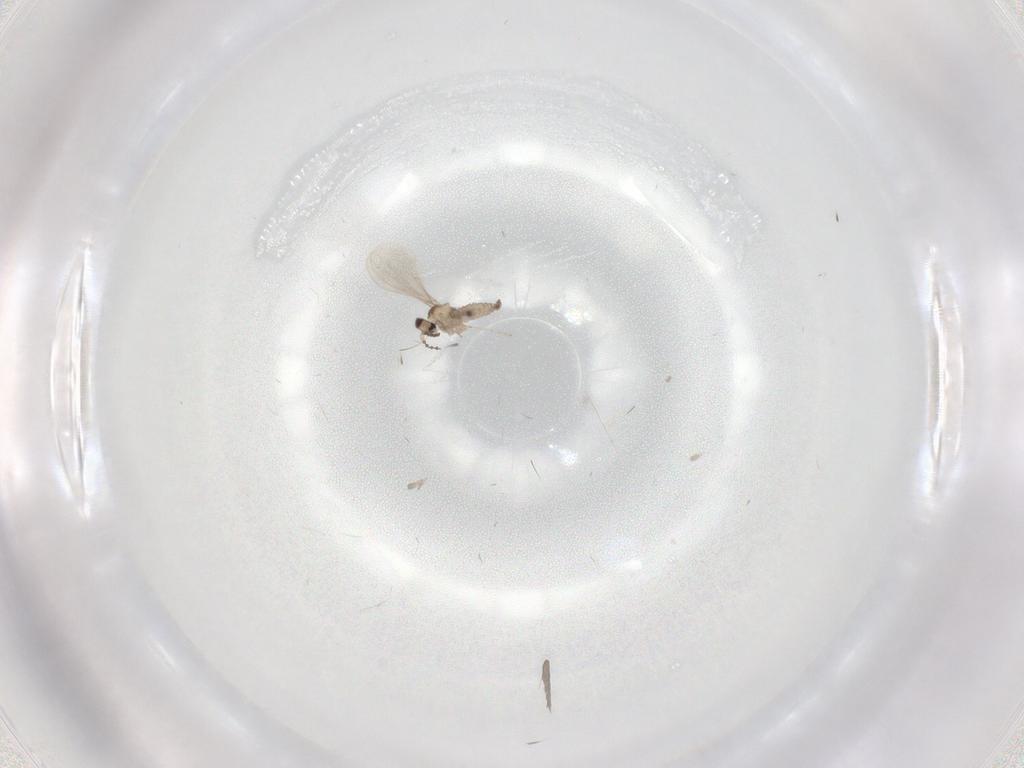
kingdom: Animalia
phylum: Arthropoda
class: Insecta
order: Diptera
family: Cecidomyiidae
